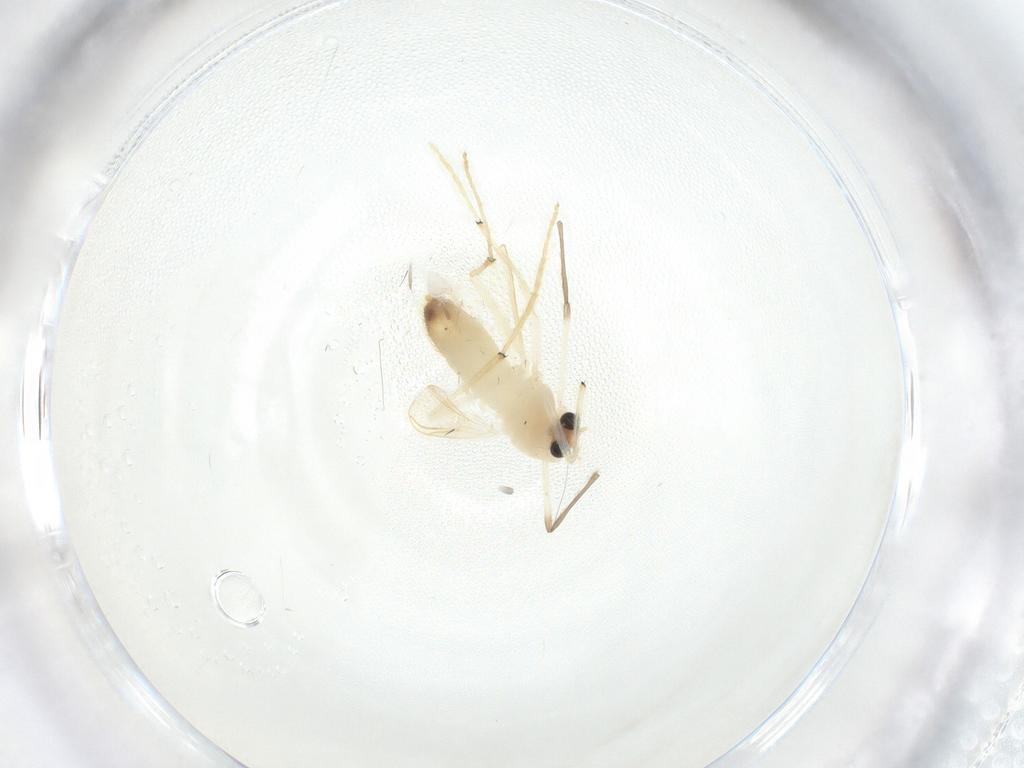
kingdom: Animalia
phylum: Arthropoda
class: Insecta
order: Diptera
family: Chironomidae
